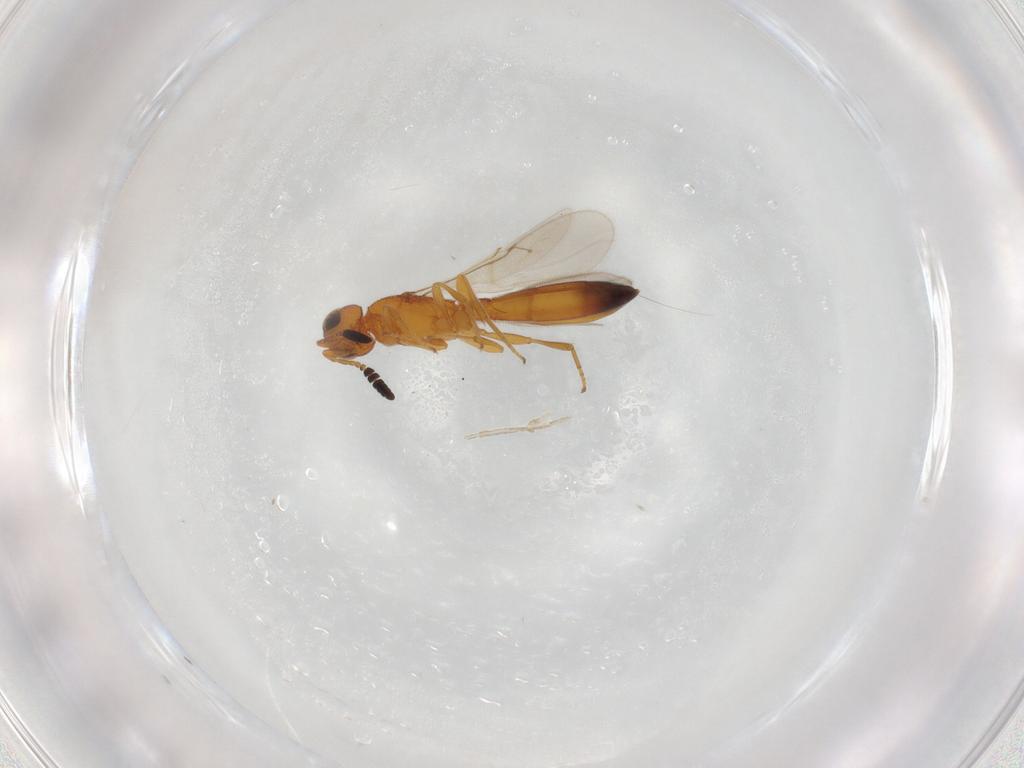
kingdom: Animalia
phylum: Arthropoda
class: Insecta
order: Hymenoptera
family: Scelionidae
